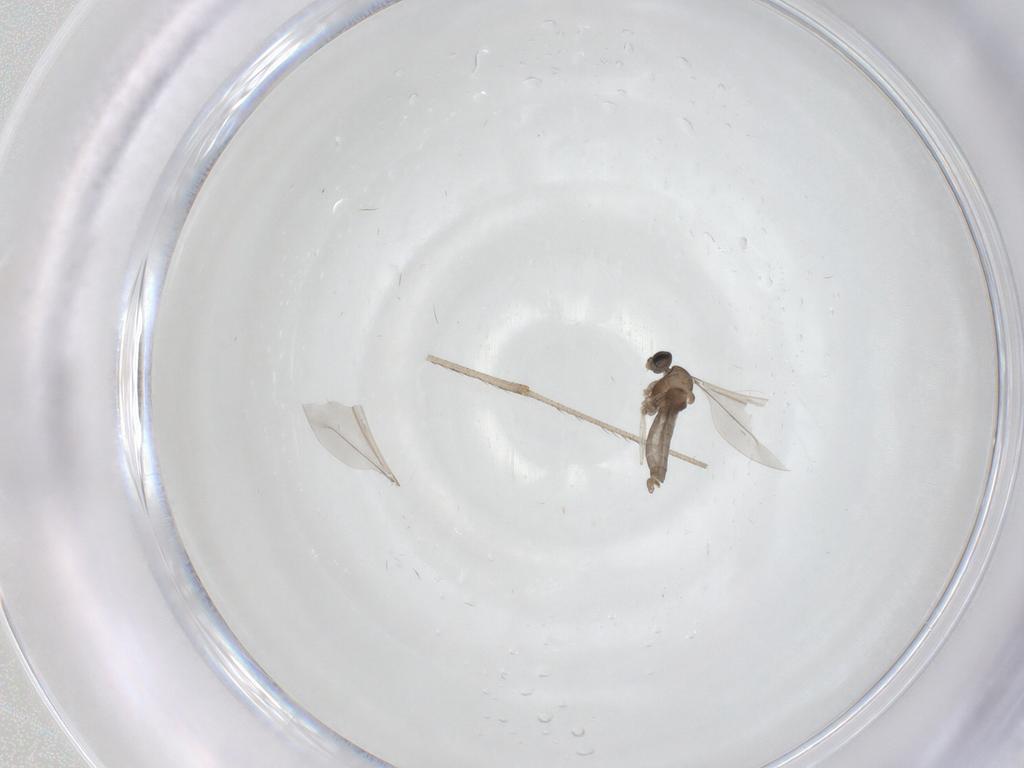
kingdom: Animalia
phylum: Arthropoda
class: Insecta
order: Diptera
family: Cecidomyiidae
